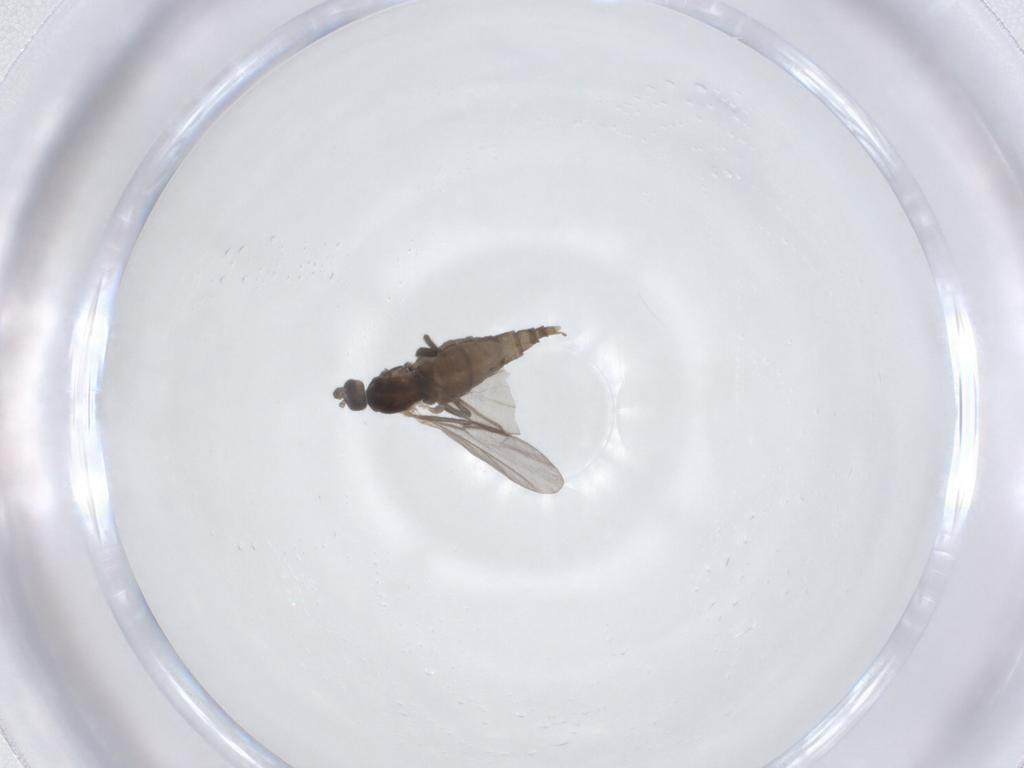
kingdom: Animalia
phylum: Arthropoda
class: Insecta
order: Diptera
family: Cecidomyiidae
